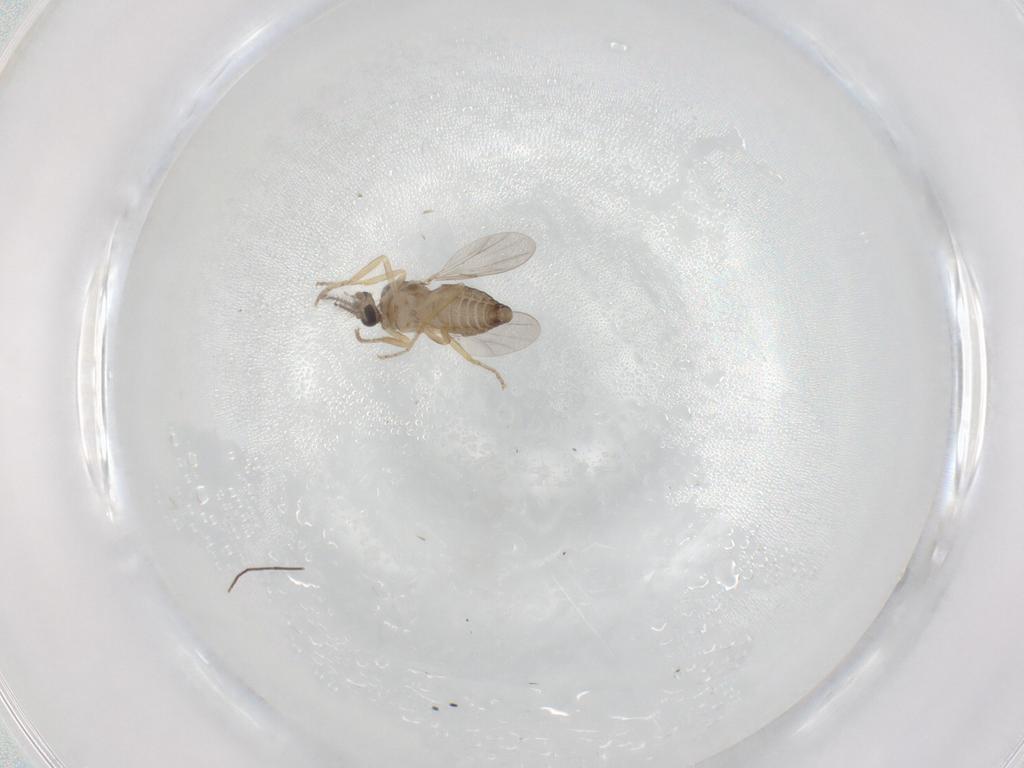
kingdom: Animalia
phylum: Arthropoda
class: Insecta
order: Diptera
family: Ceratopogonidae
